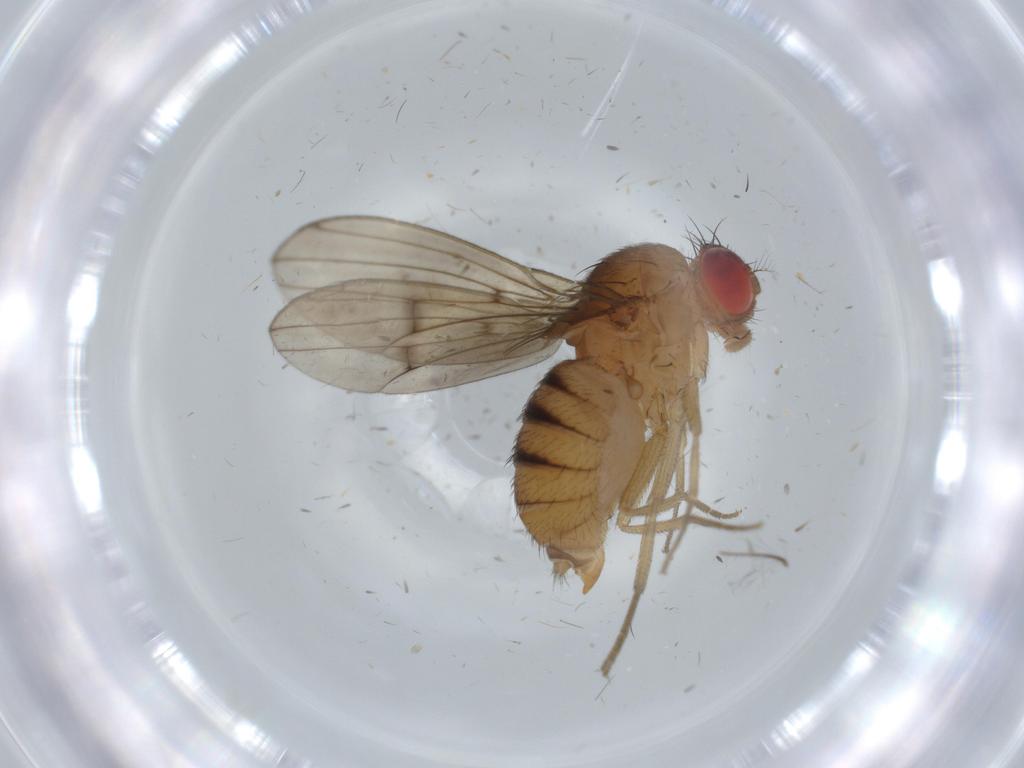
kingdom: Animalia
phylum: Arthropoda
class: Insecta
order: Diptera
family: Drosophilidae
